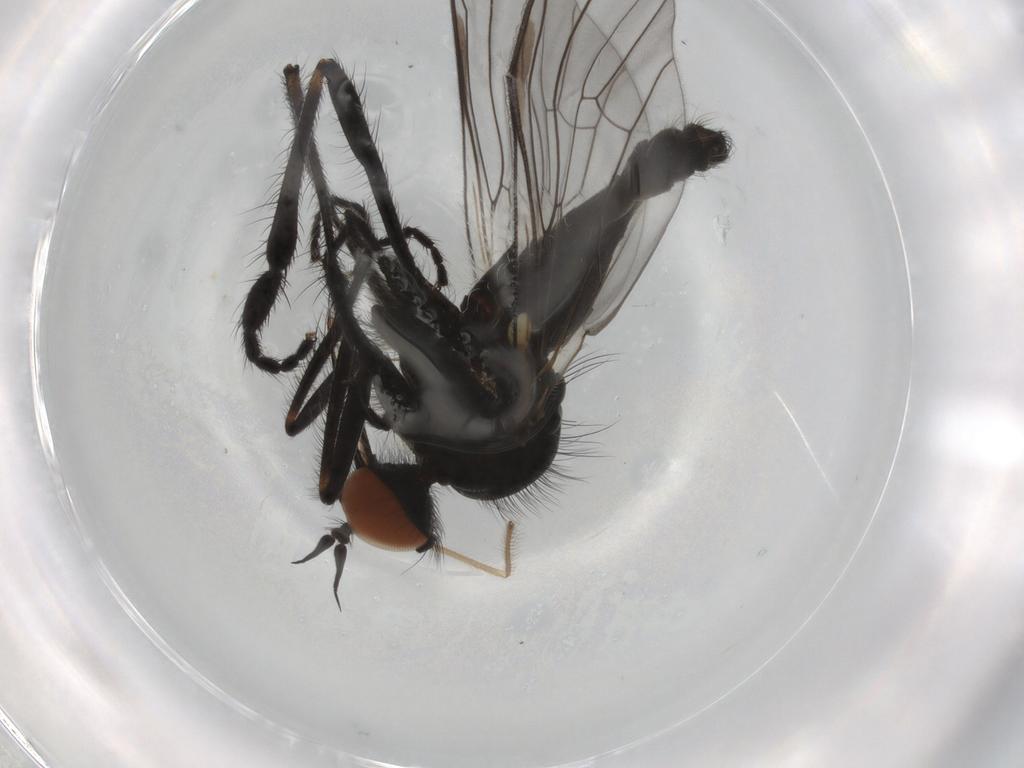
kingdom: Animalia
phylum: Arthropoda
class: Insecta
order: Diptera
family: Empididae
